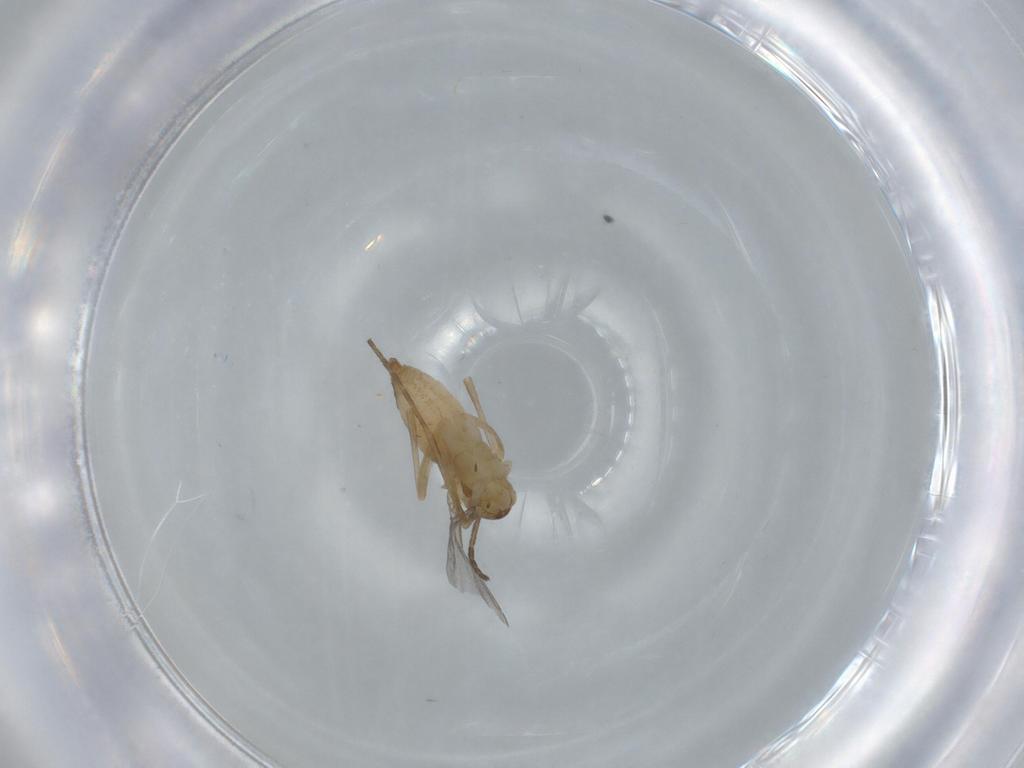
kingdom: Animalia
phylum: Arthropoda
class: Insecta
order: Diptera
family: Cecidomyiidae
